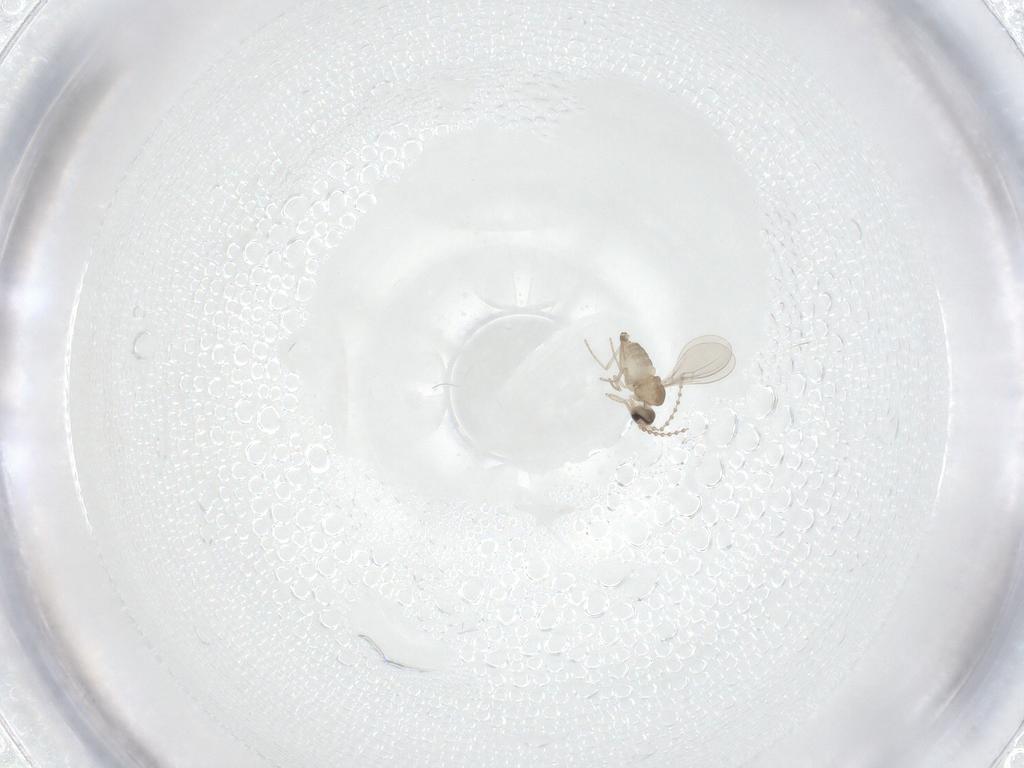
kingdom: Animalia
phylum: Arthropoda
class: Insecta
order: Diptera
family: Cecidomyiidae
